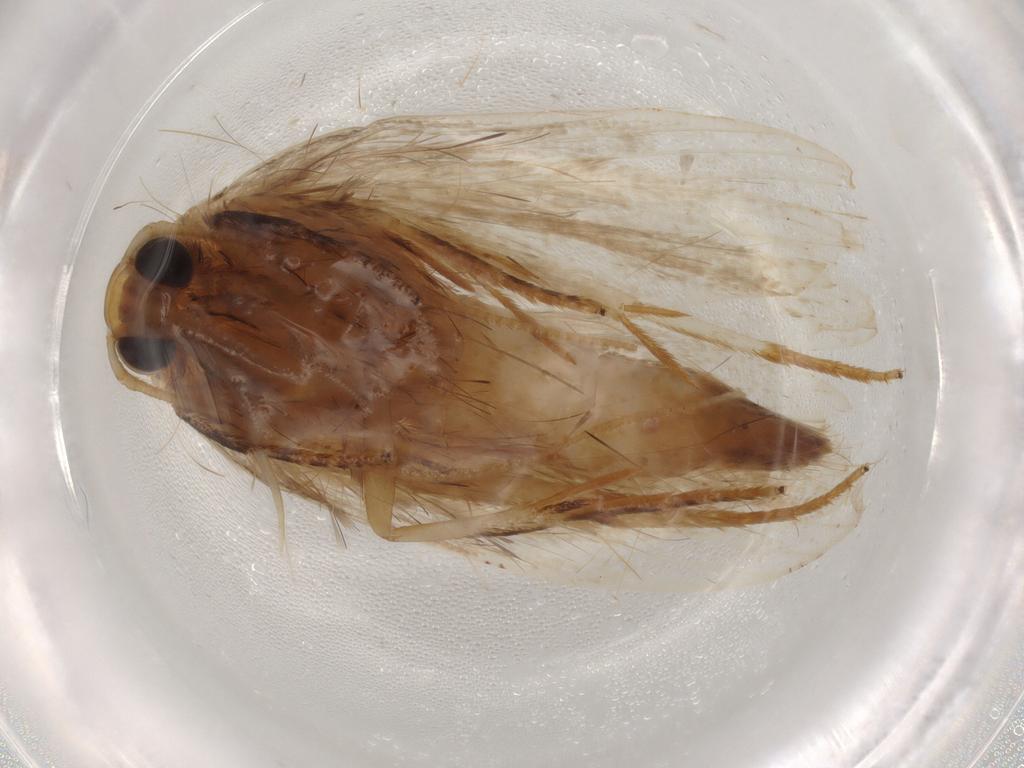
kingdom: Animalia
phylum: Arthropoda
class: Insecta
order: Lepidoptera
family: Depressariidae
